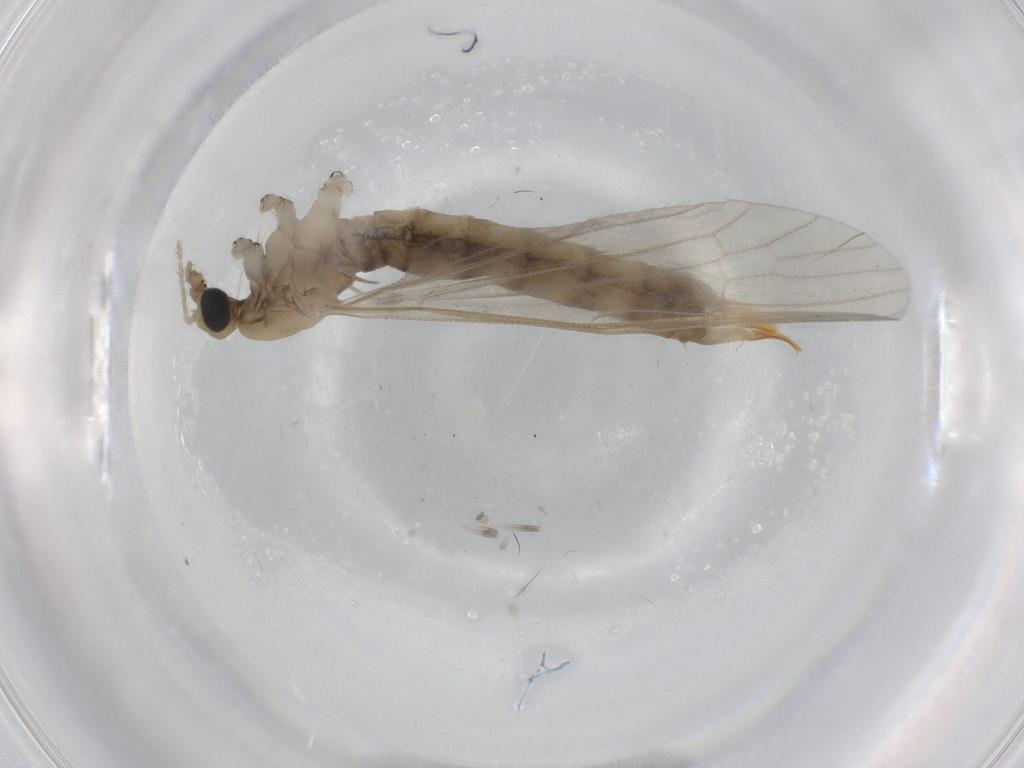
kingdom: Animalia
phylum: Arthropoda
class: Insecta
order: Diptera
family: Limoniidae
